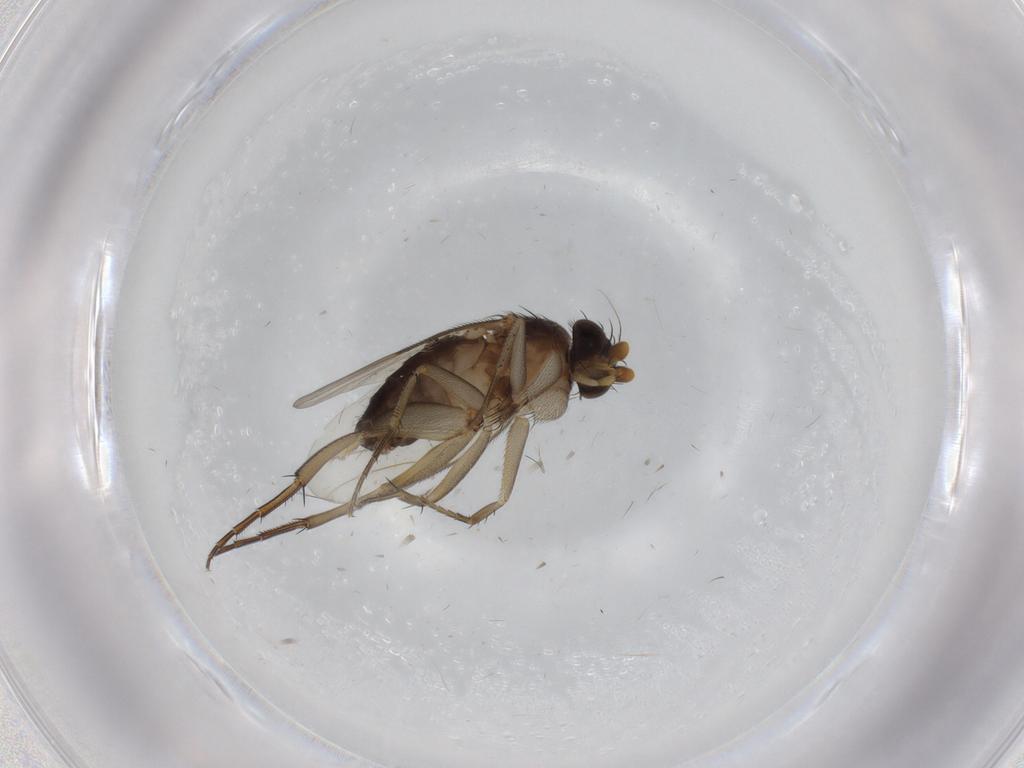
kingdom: Animalia
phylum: Arthropoda
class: Insecta
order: Diptera
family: Phoridae
